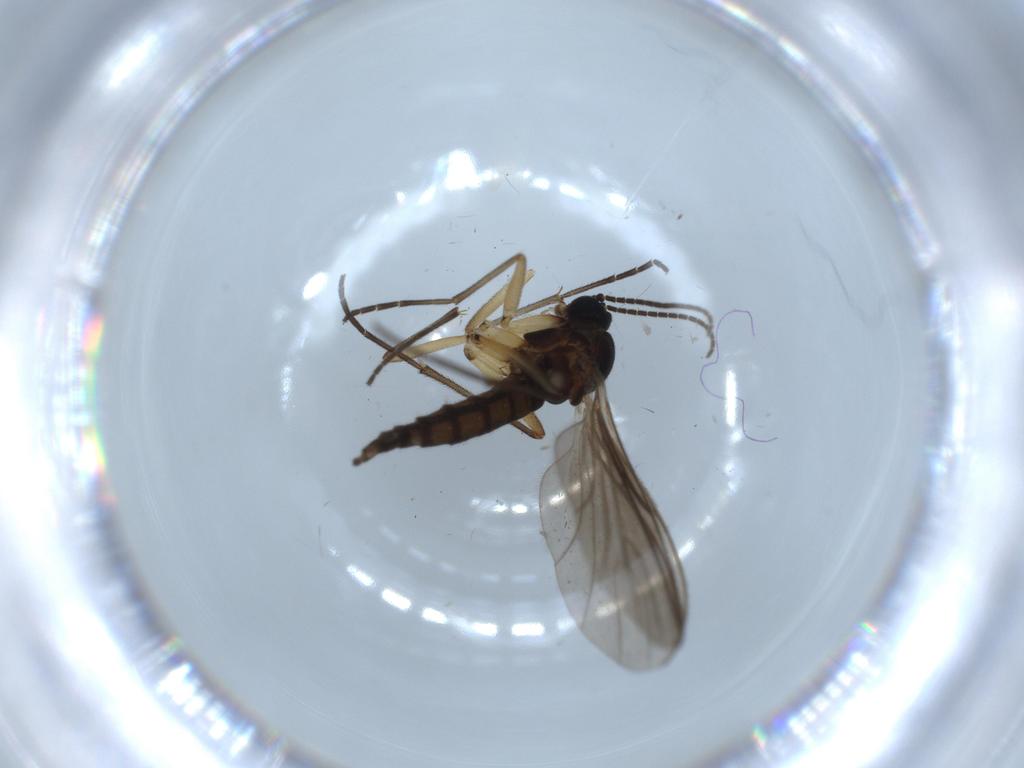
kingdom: Animalia
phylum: Arthropoda
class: Insecta
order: Diptera
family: Sciaridae
